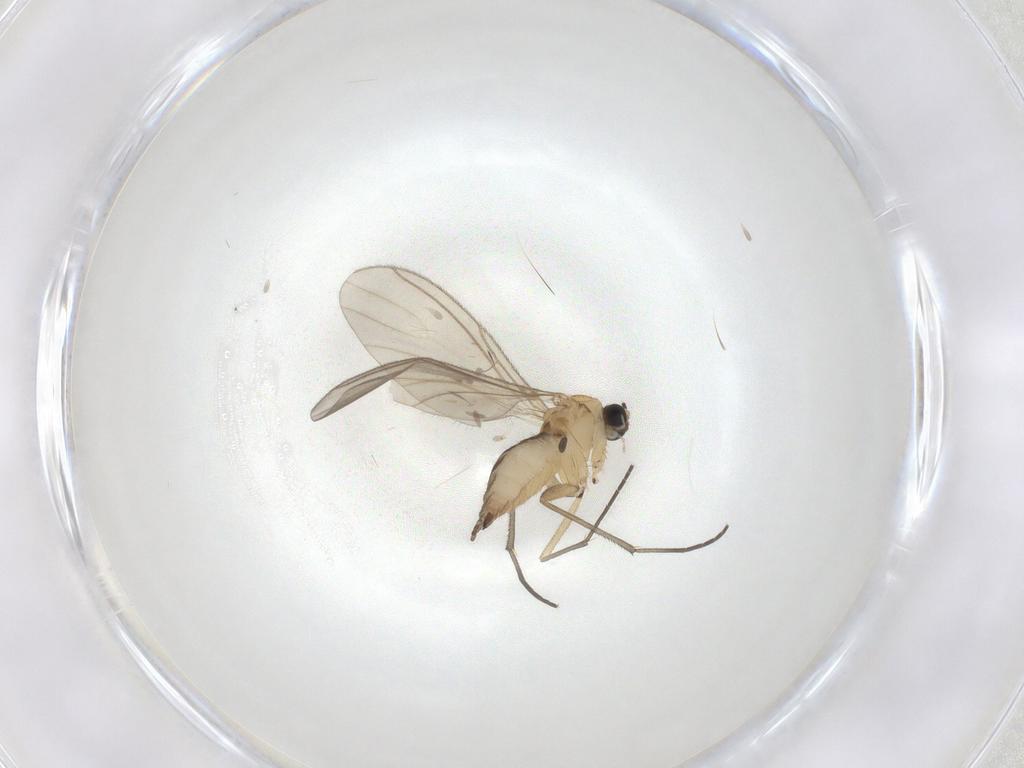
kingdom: Animalia
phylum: Arthropoda
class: Insecta
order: Diptera
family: Sciaridae
